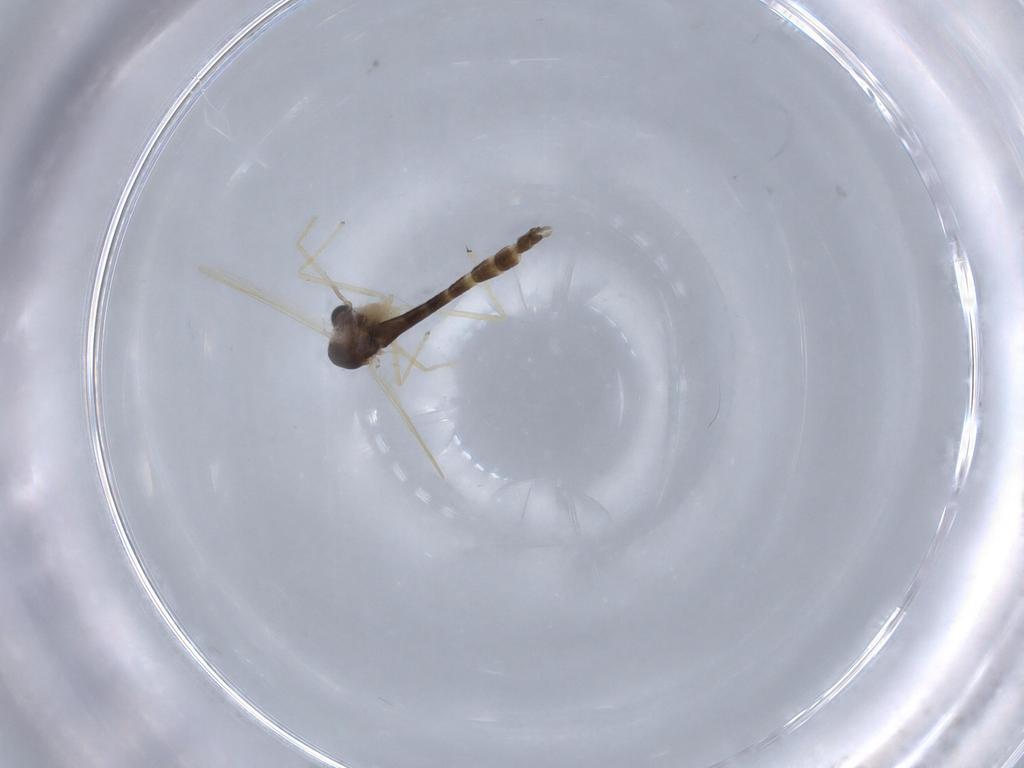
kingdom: Animalia
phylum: Arthropoda
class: Insecta
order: Diptera
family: Chironomidae
